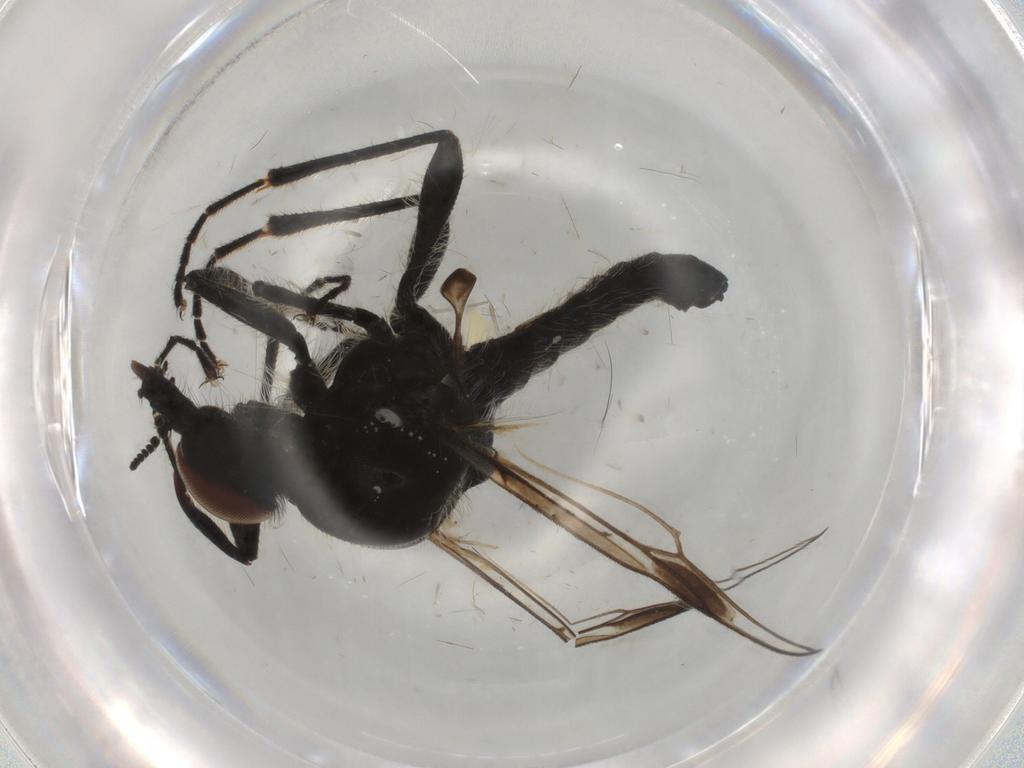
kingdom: Animalia
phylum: Arthropoda
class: Insecta
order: Diptera
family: Bibionidae
